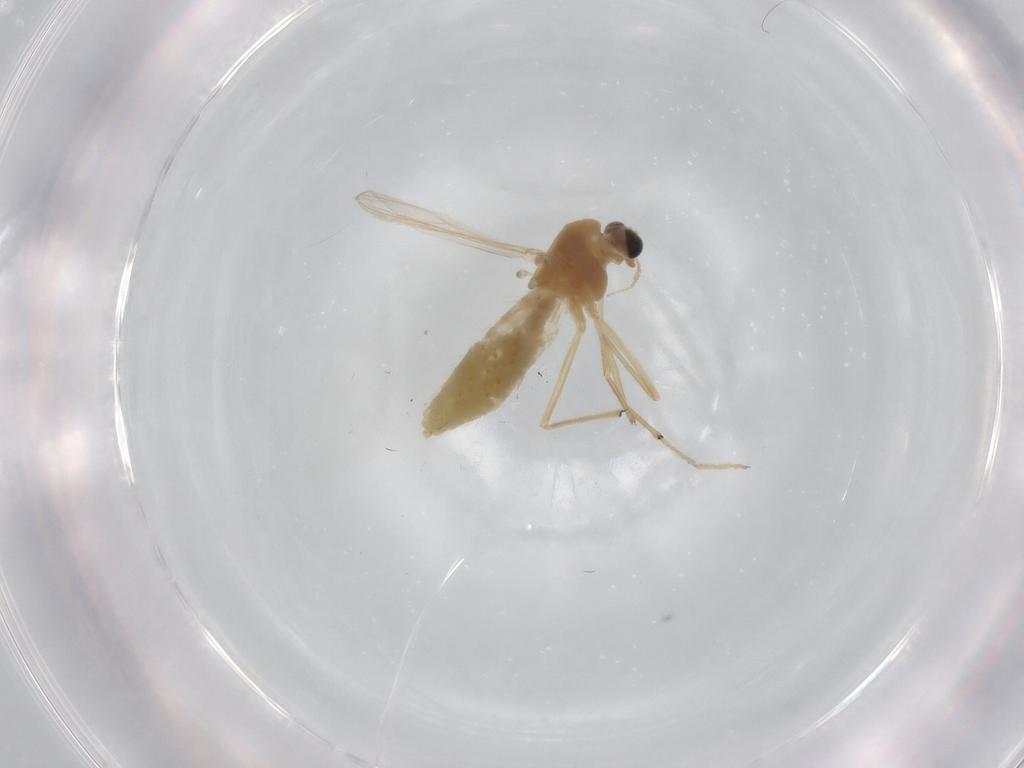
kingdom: Animalia
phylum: Arthropoda
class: Insecta
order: Diptera
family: Chironomidae
